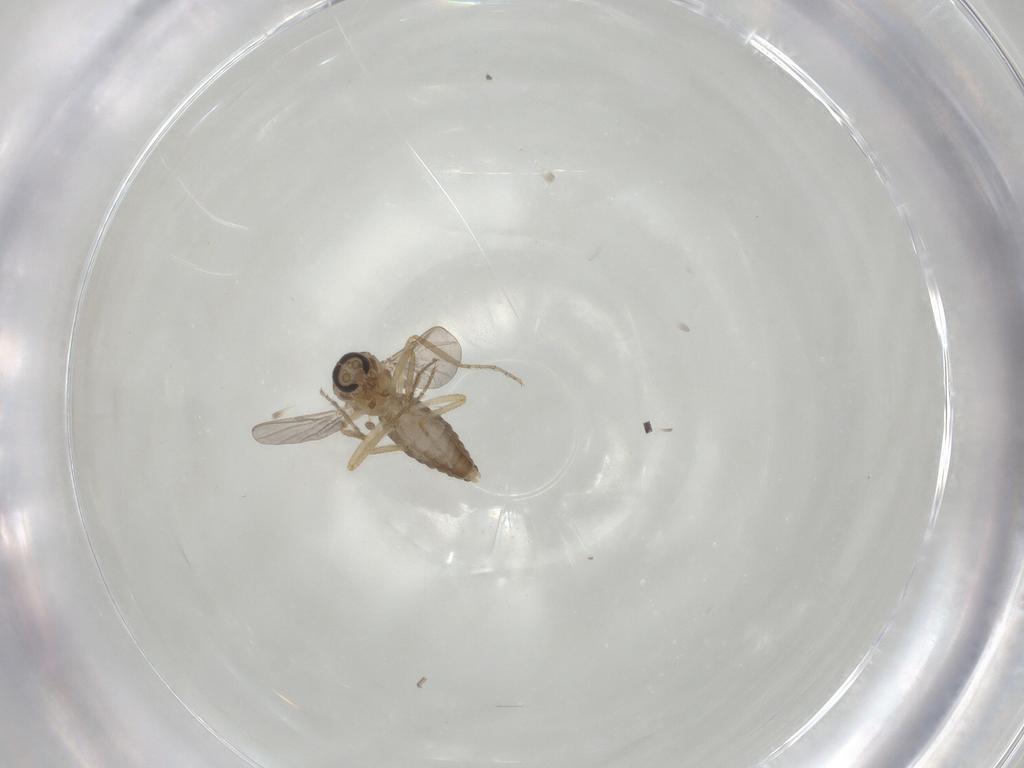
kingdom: Animalia
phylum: Arthropoda
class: Insecta
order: Diptera
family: Ceratopogonidae
